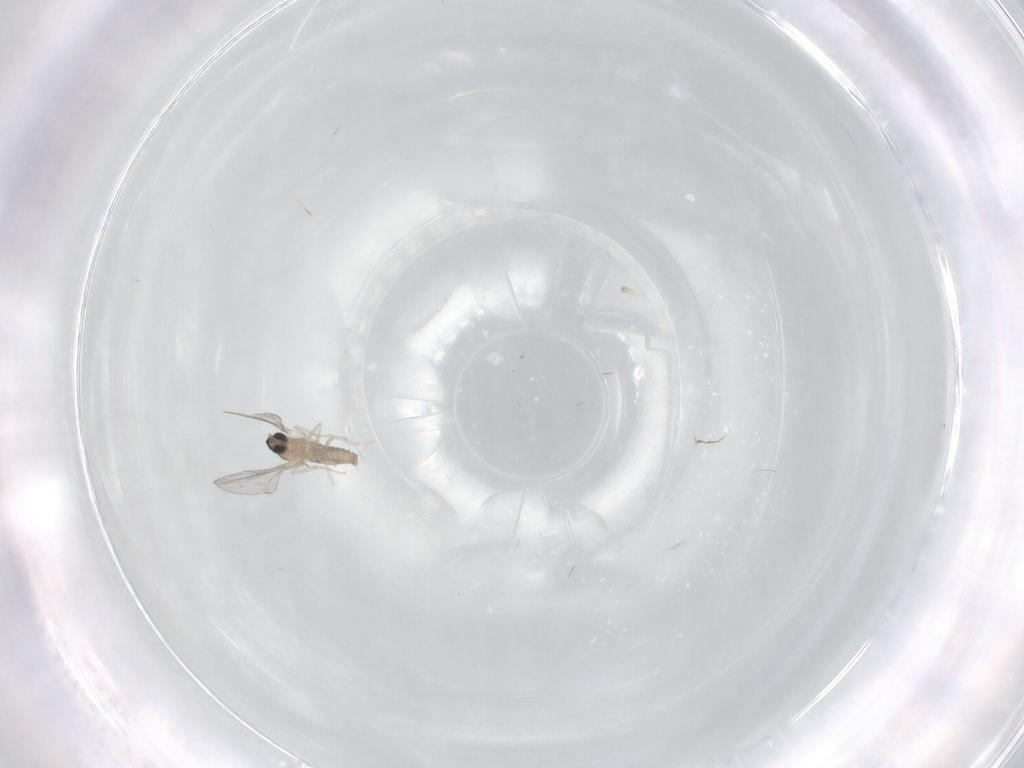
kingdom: Animalia
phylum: Arthropoda
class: Insecta
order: Diptera
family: Cecidomyiidae
